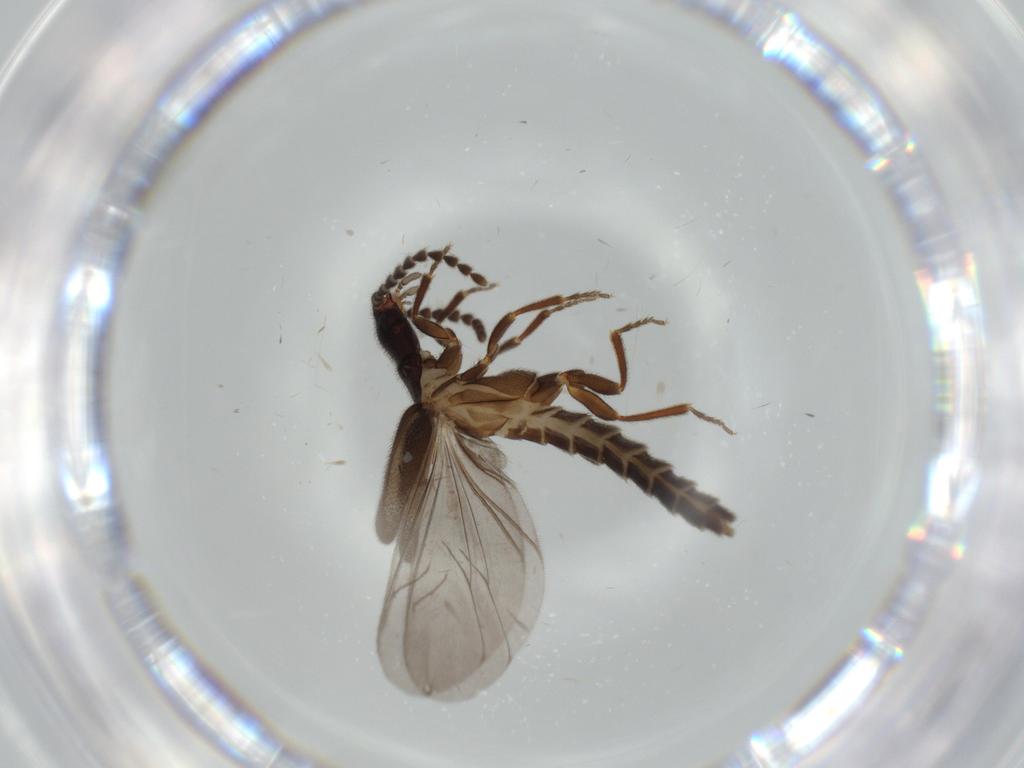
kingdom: Animalia
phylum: Arthropoda
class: Insecta
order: Coleoptera
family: Omethidae
